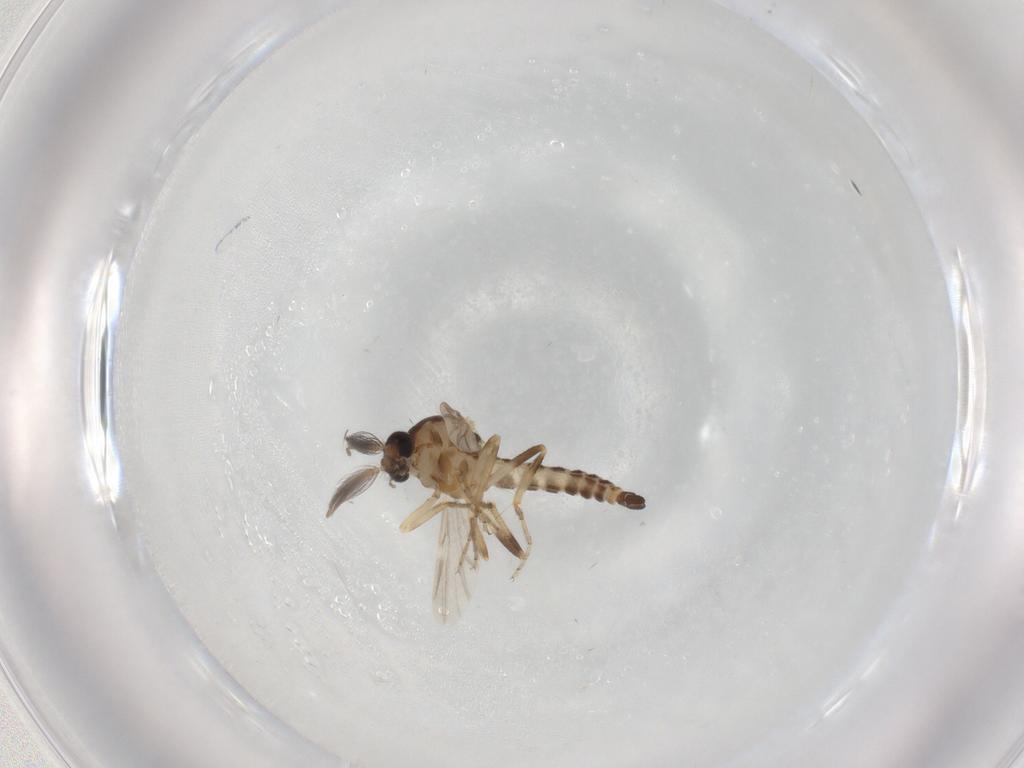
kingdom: Animalia
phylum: Arthropoda
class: Insecta
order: Diptera
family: Ceratopogonidae
